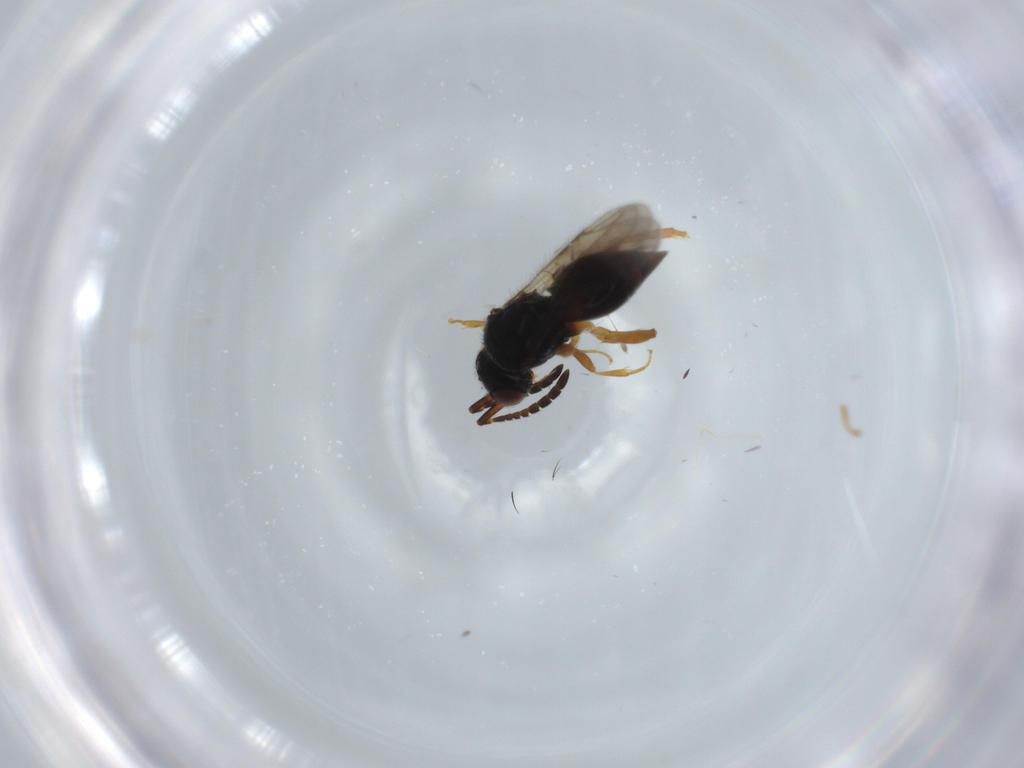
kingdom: Animalia
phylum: Arthropoda
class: Insecta
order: Hymenoptera
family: Ceraphronidae
